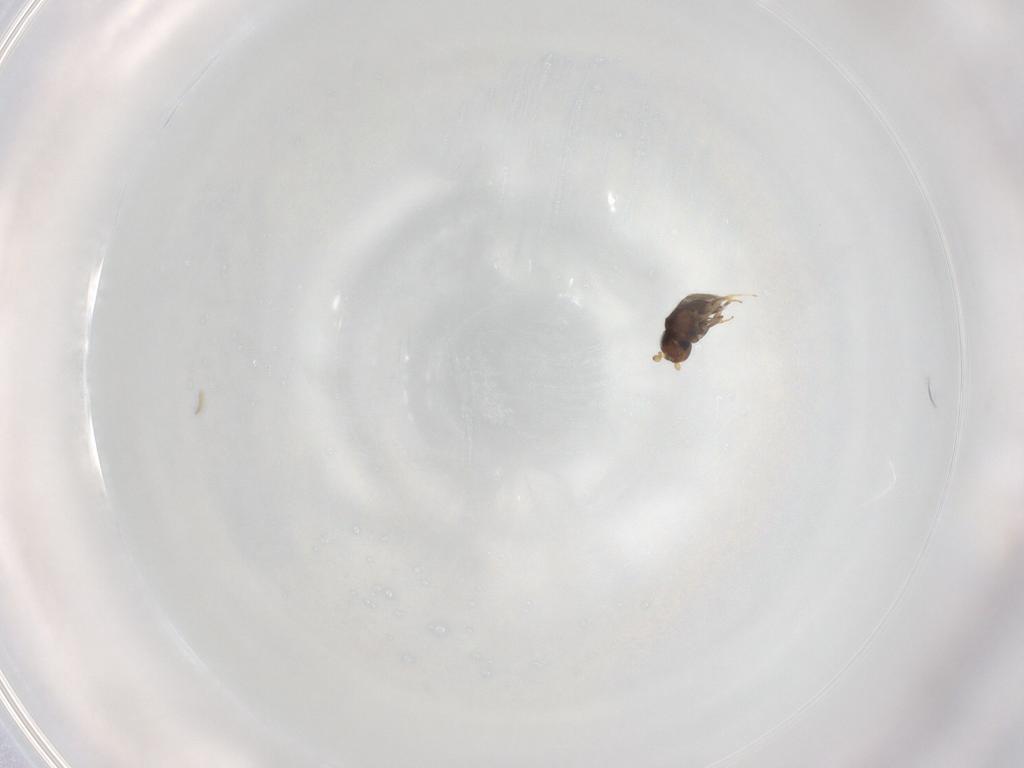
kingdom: Animalia
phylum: Arthropoda
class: Insecta
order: Hymenoptera
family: Scelionidae
